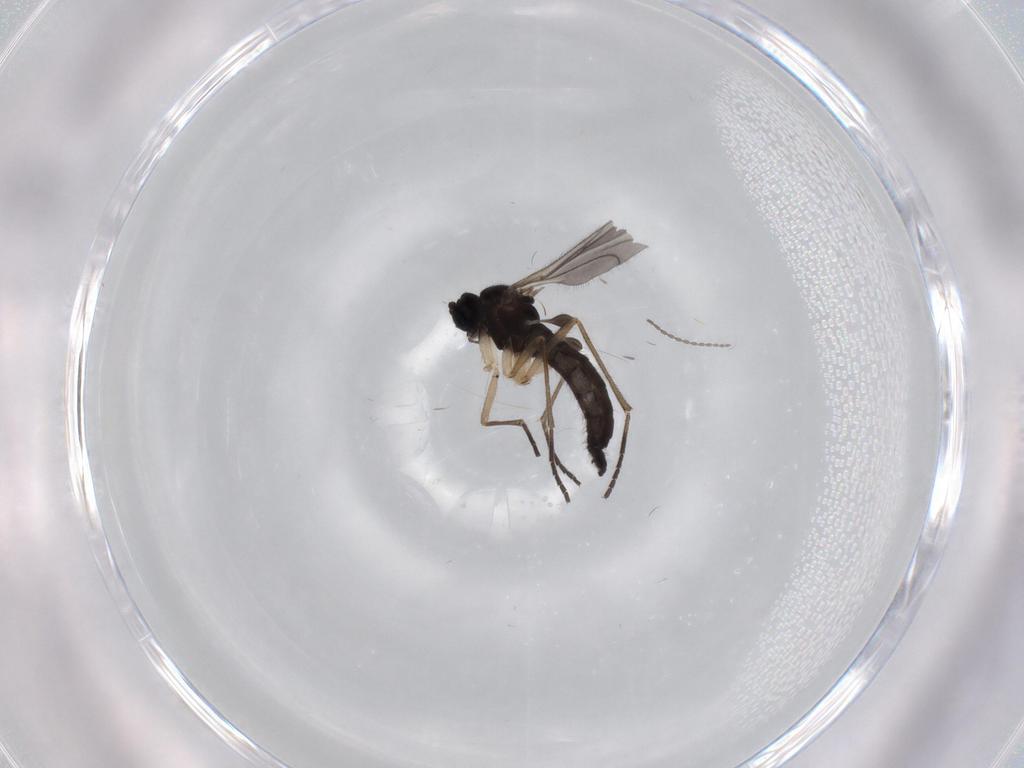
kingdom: Animalia
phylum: Arthropoda
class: Insecta
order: Diptera
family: Sciaridae
